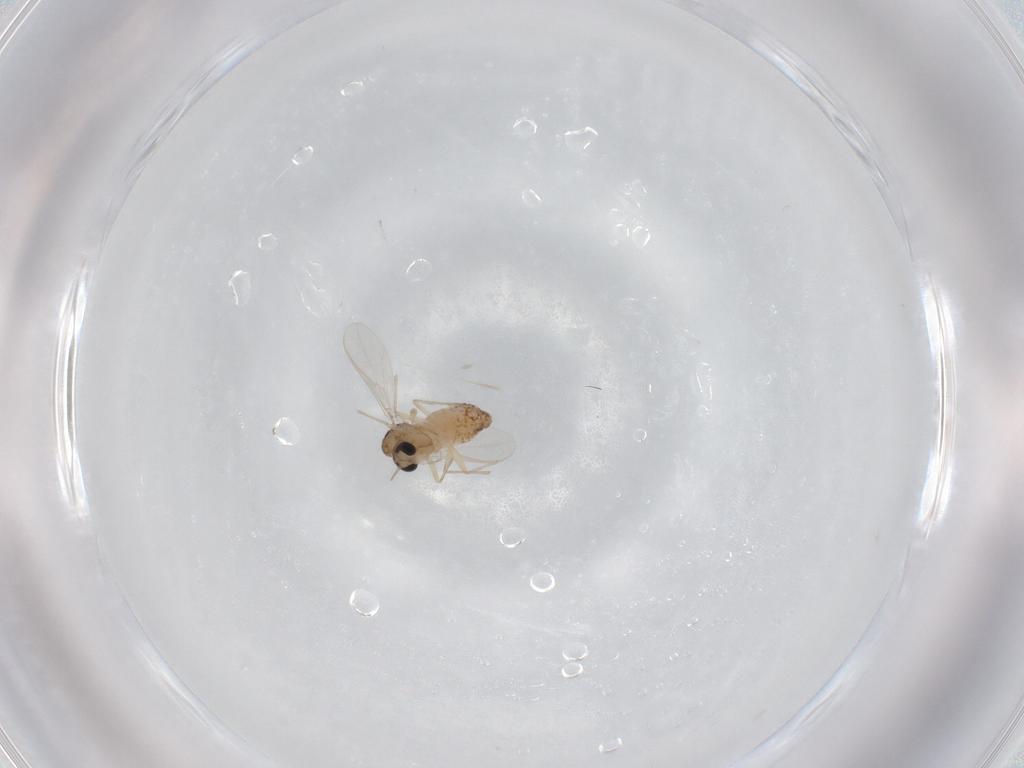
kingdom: Animalia
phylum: Arthropoda
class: Insecta
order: Diptera
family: Chironomidae
